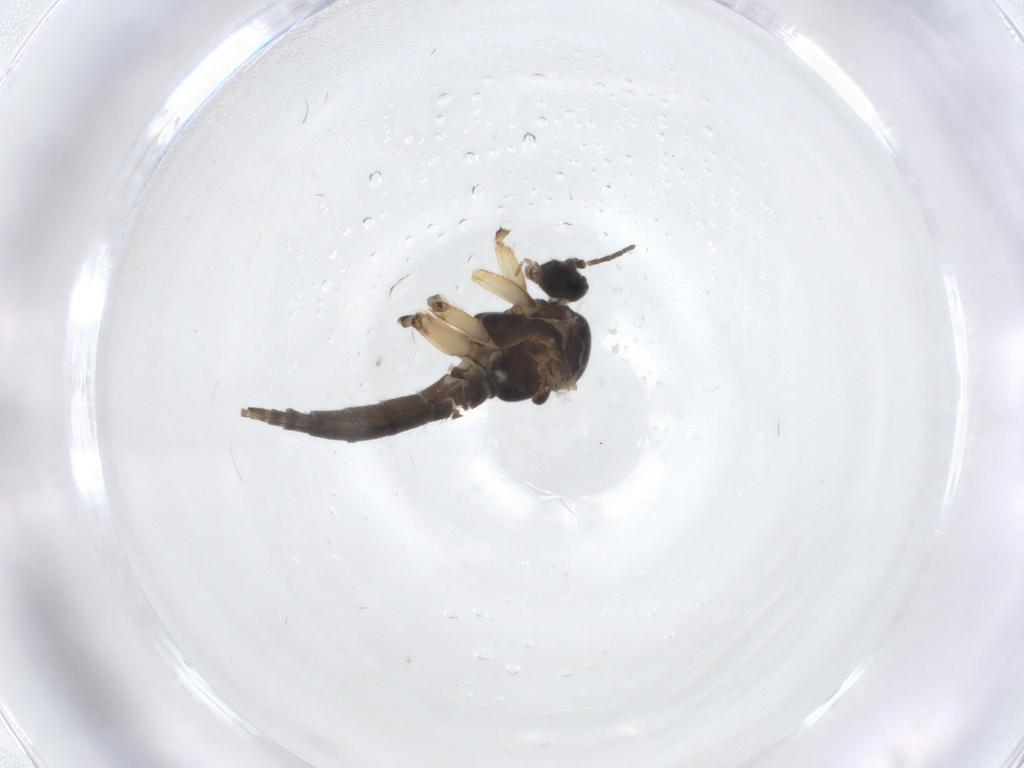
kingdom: Animalia
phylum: Arthropoda
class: Insecta
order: Diptera
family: Sciaridae
